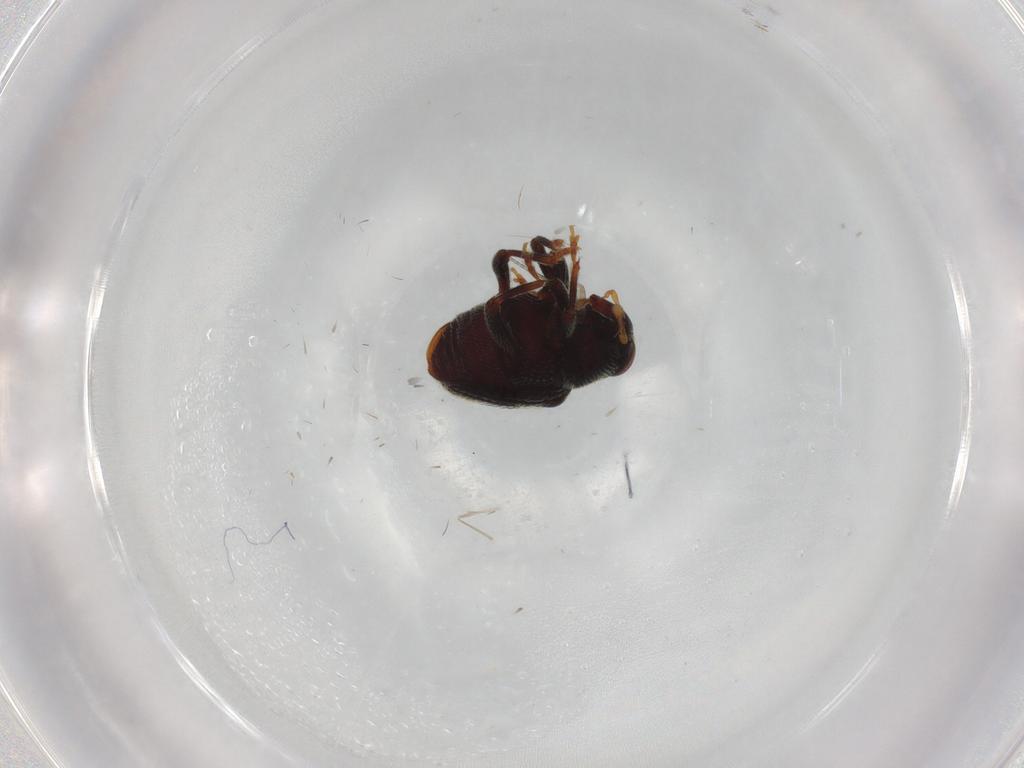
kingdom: Animalia
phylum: Arthropoda
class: Insecta
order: Coleoptera
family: Curculionidae
